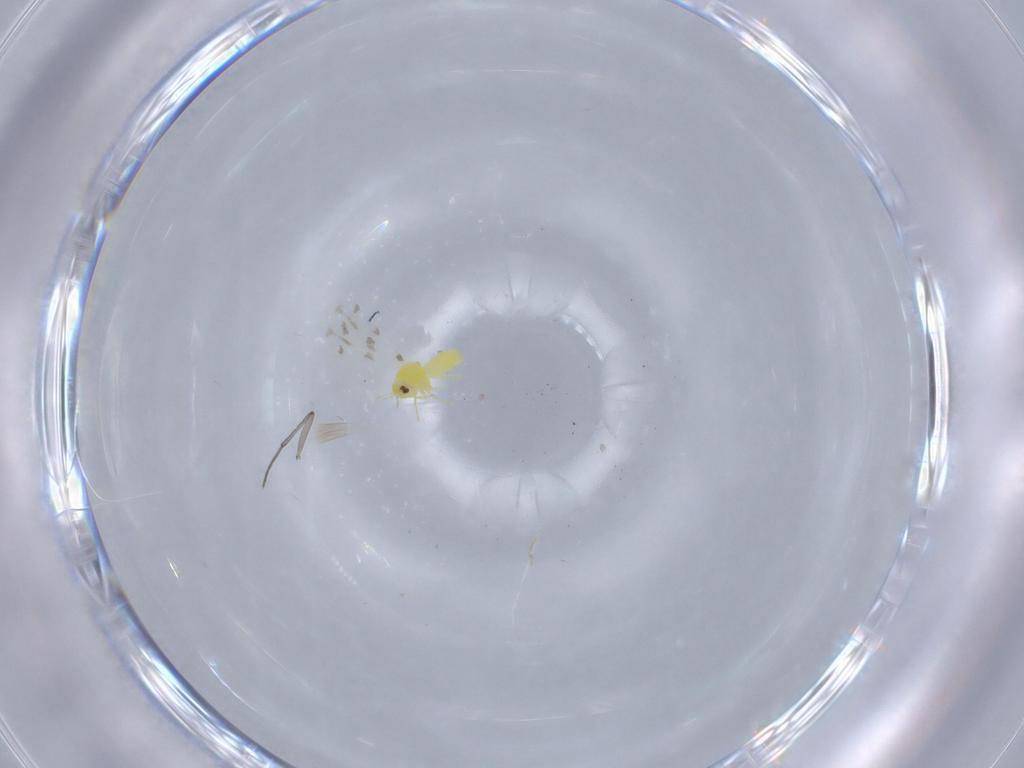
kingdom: Animalia
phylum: Arthropoda
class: Insecta
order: Hemiptera
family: Aleyrodidae
